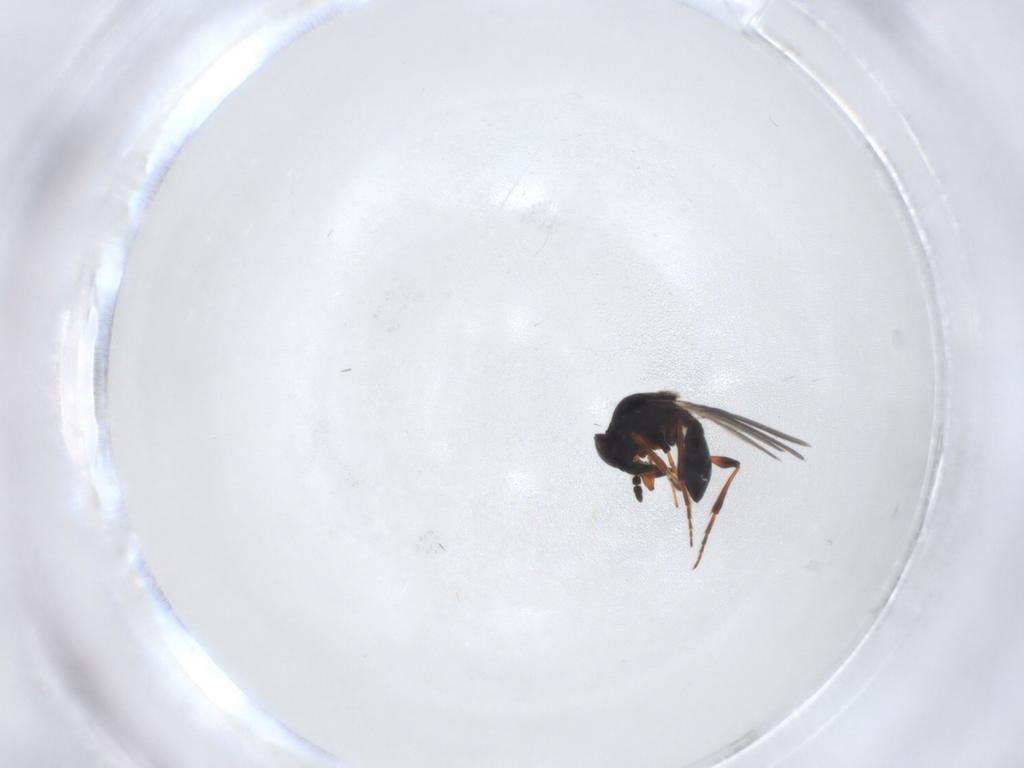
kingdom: Animalia
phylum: Arthropoda
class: Insecta
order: Hymenoptera
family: Platygastridae
